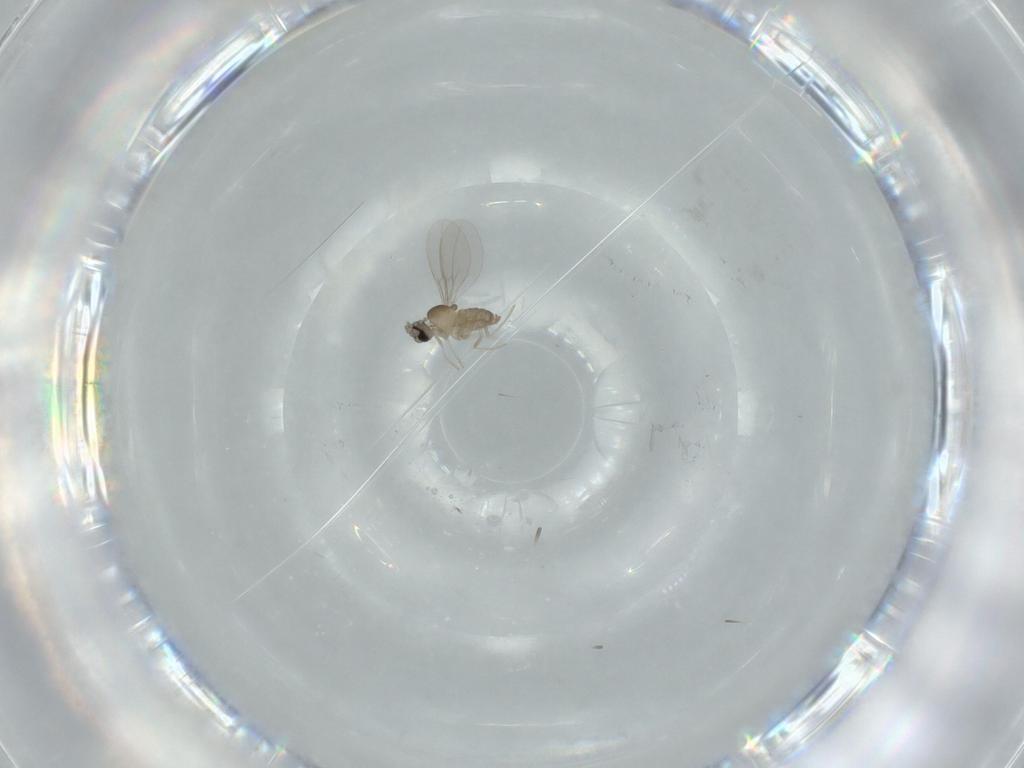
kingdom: Animalia
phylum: Arthropoda
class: Insecta
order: Diptera
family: Cecidomyiidae
